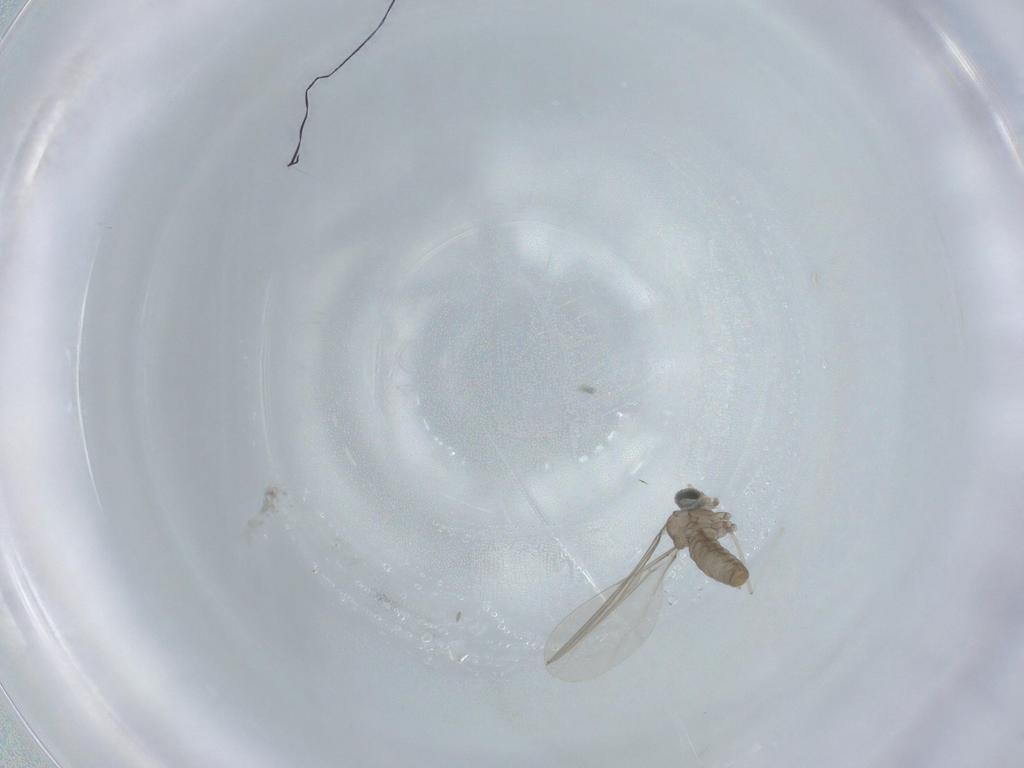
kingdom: Animalia
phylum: Arthropoda
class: Insecta
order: Diptera
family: Cecidomyiidae
